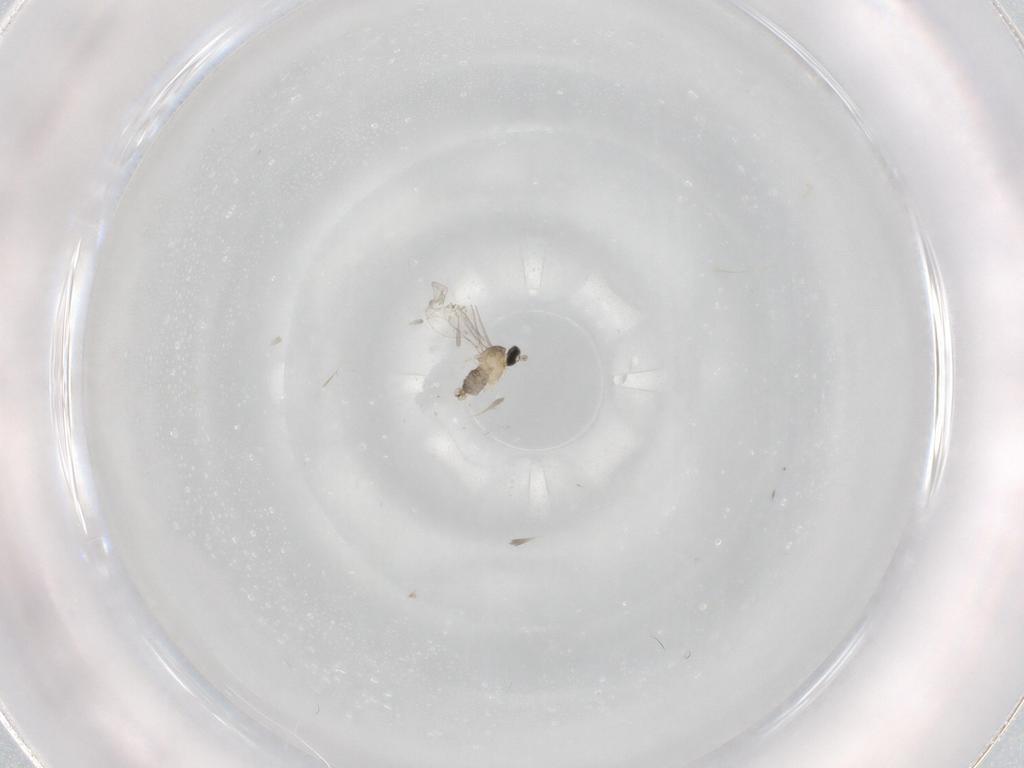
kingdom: Animalia
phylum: Arthropoda
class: Insecta
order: Diptera
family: Cecidomyiidae
